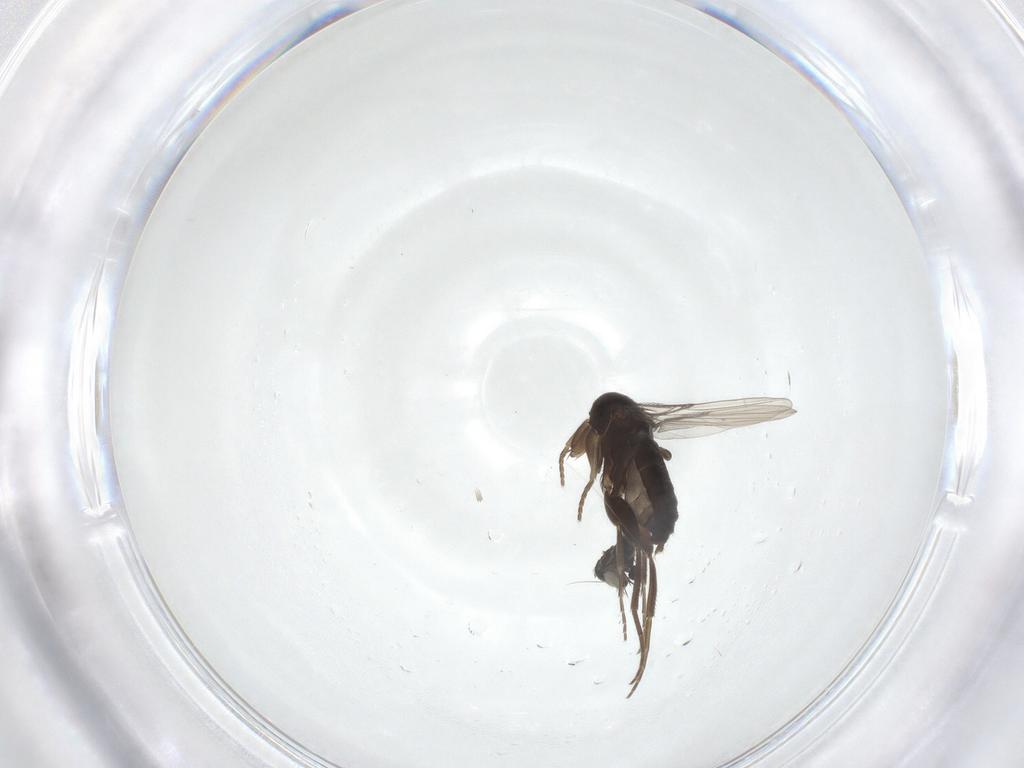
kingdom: Animalia
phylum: Arthropoda
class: Insecta
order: Diptera
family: Phoridae
